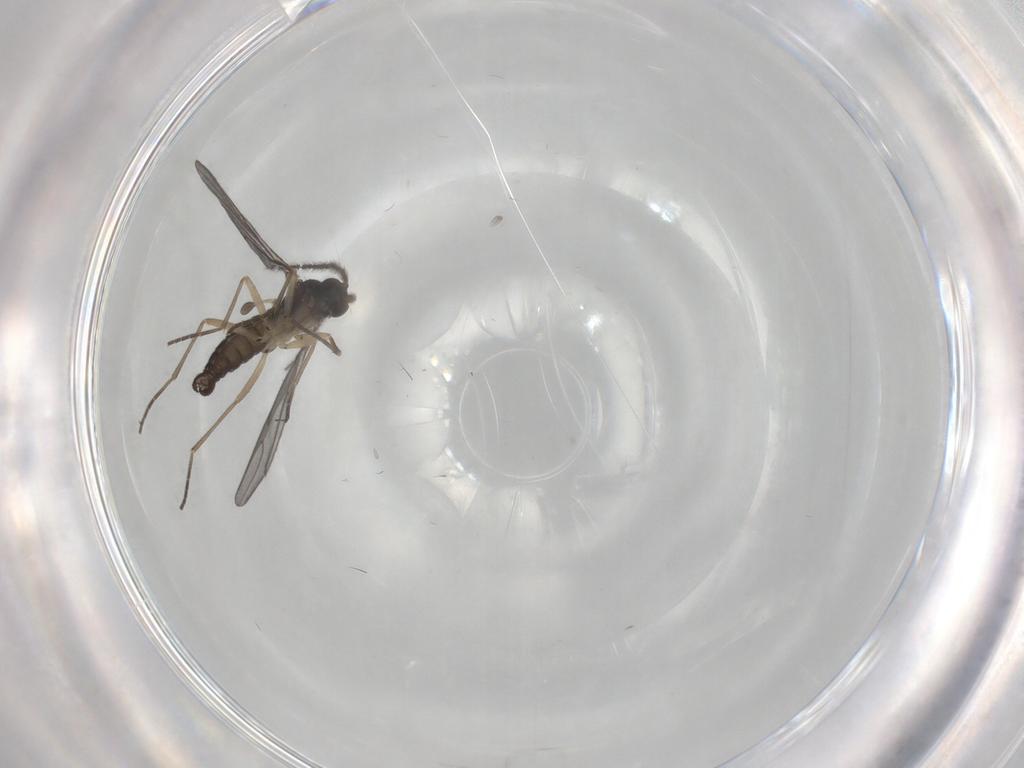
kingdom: Animalia
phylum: Arthropoda
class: Insecta
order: Diptera
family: Sciaridae
